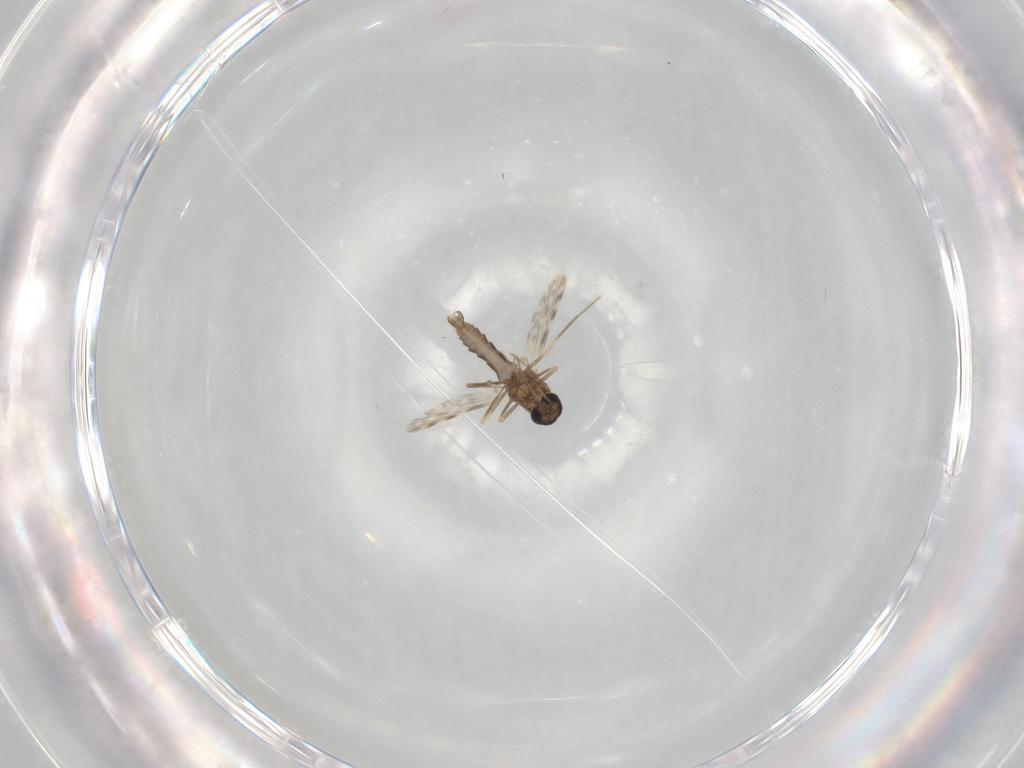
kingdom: Animalia
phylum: Arthropoda
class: Insecta
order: Diptera
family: Ceratopogonidae
